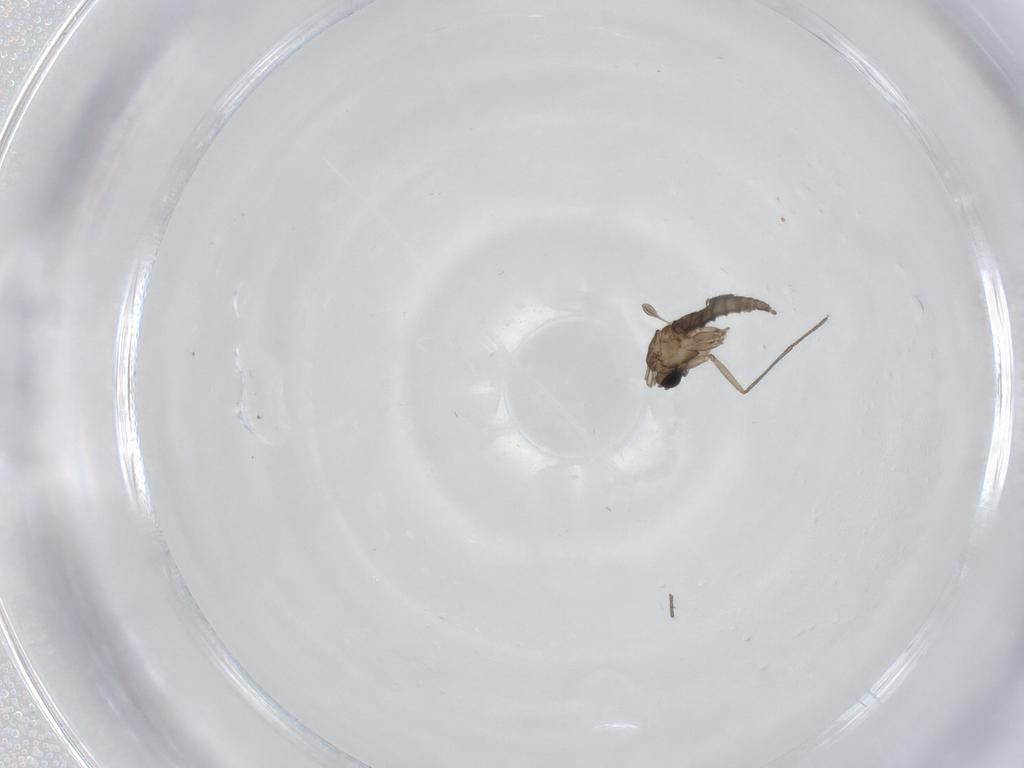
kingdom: Animalia
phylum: Arthropoda
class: Insecta
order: Diptera
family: Sciaridae
